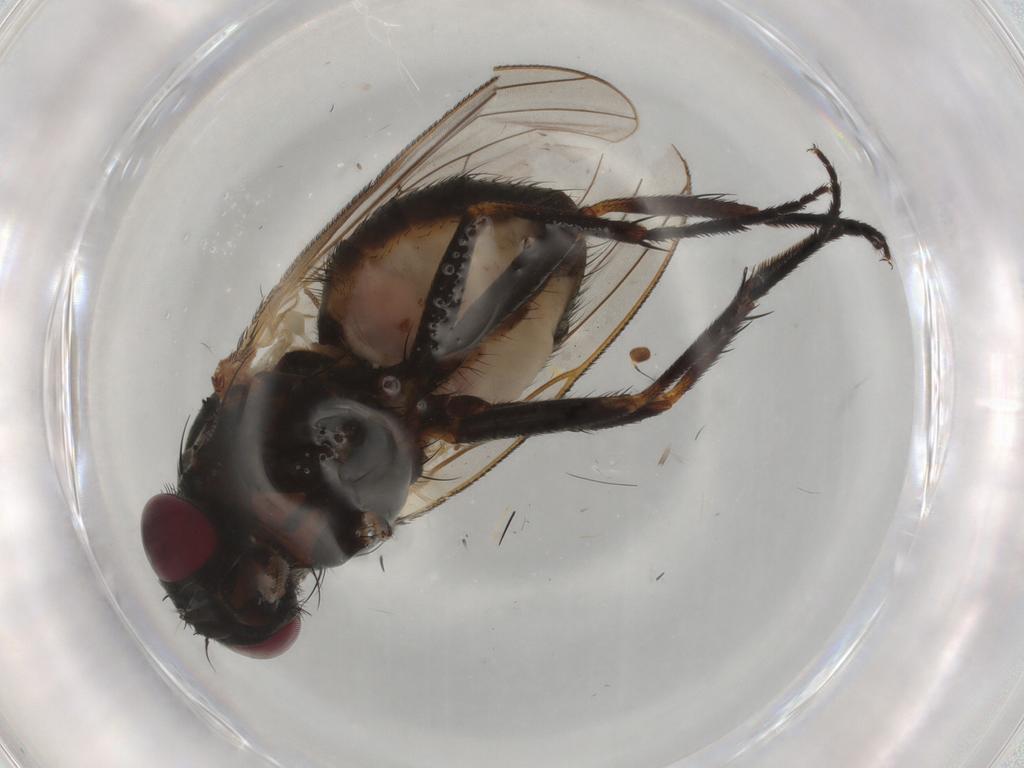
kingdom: Animalia
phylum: Arthropoda
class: Insecta
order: Diptera
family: Fannia
